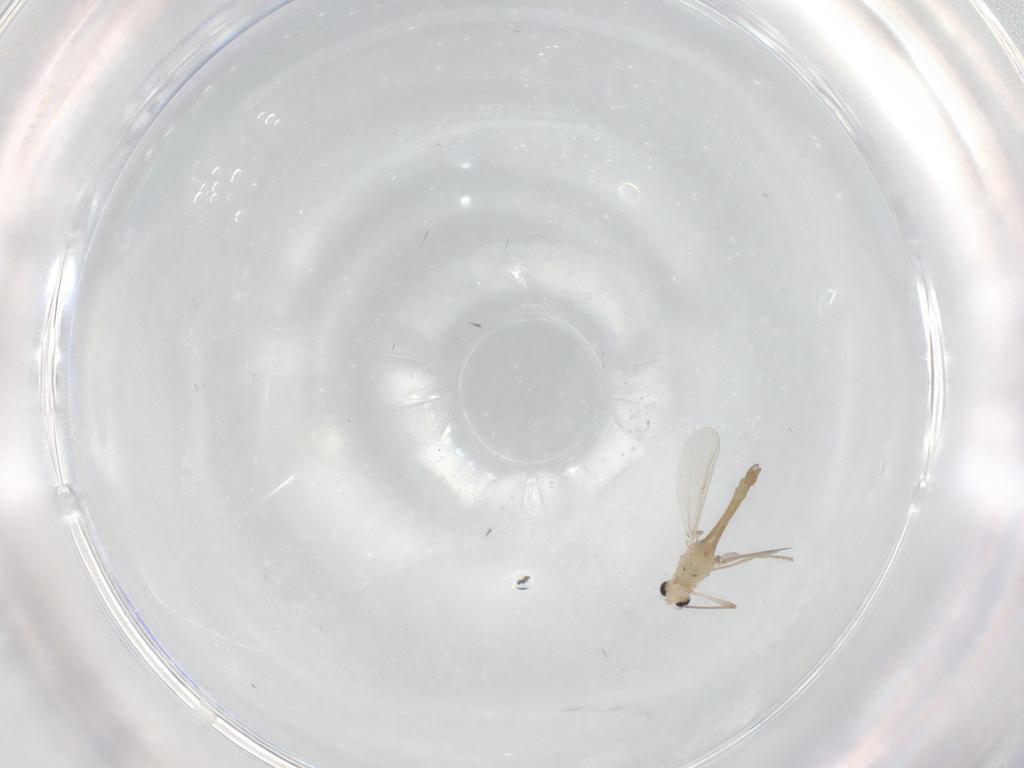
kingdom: Animalia
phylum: Arthropoda
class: Insecta
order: Diptera
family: Chironomidae
